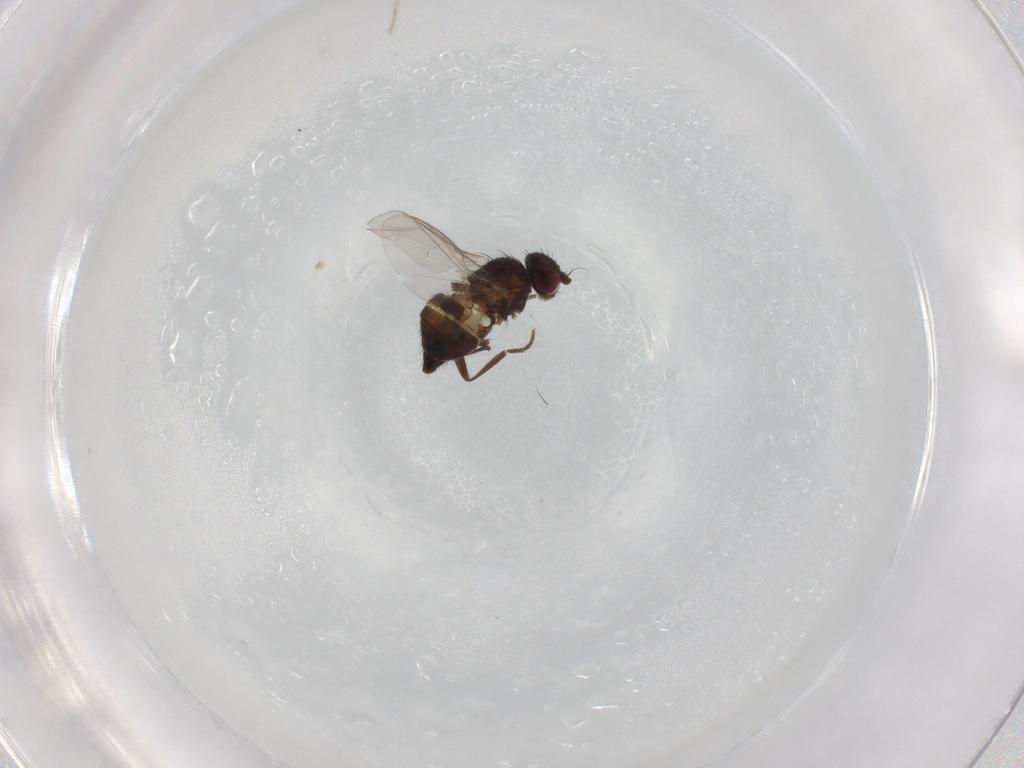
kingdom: Animalia
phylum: Arthropoda
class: Insecta
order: Diptera
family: Agromyzidae
